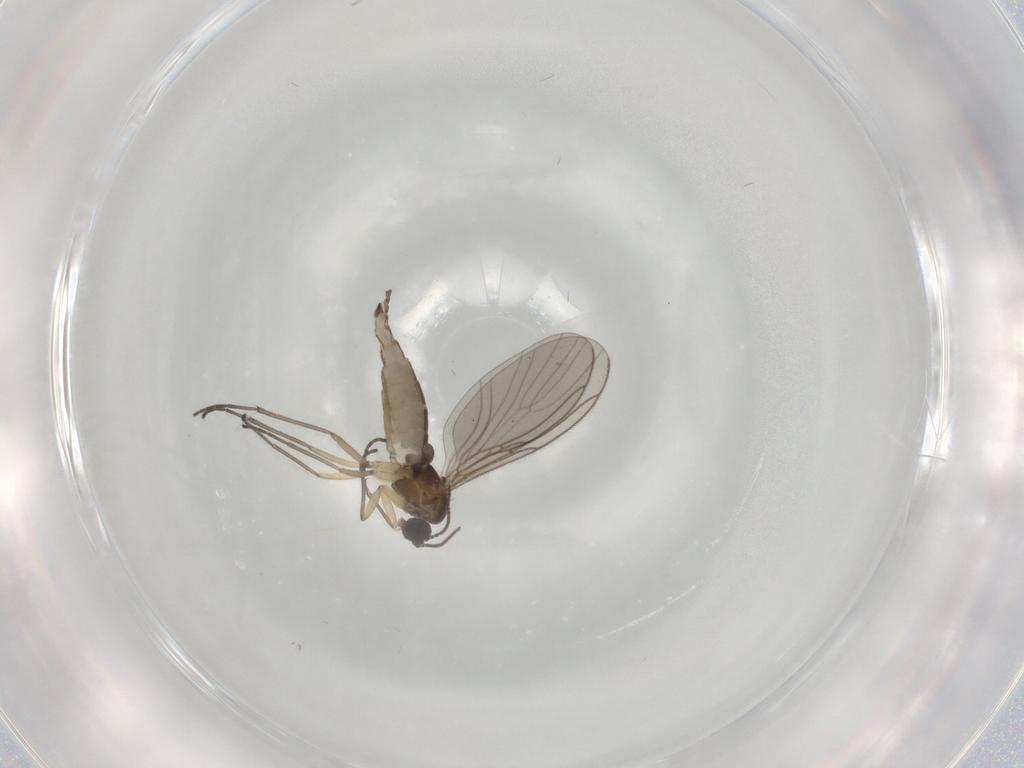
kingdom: Animalia
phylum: Arthropoda
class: Insecta
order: Diptera
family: Sciaridae
